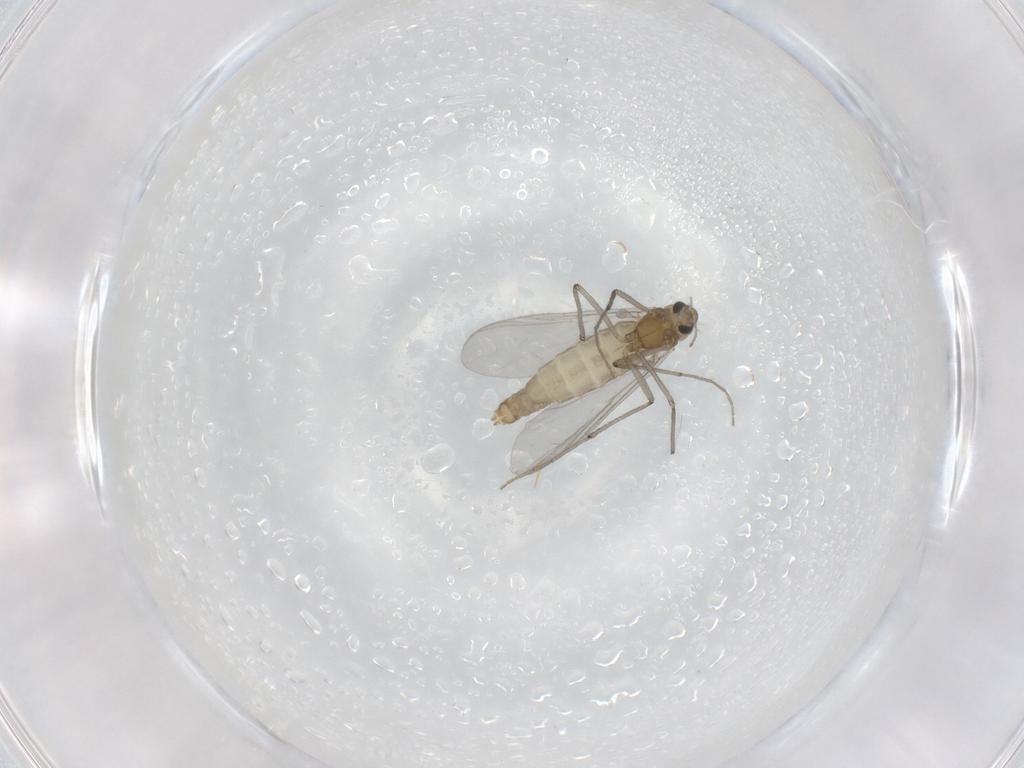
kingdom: Animalia
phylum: Arthropoda
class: Insecta
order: Diptera
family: Chironomidae
